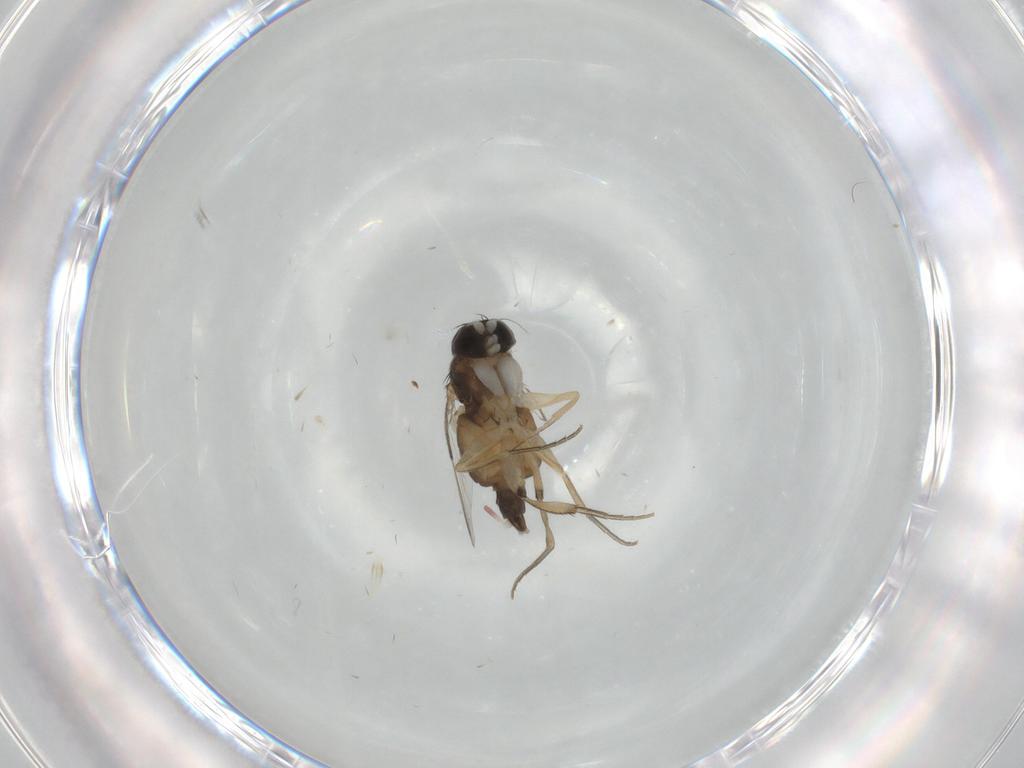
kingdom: Animalia
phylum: Arthropoda
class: Insecta
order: Diptera
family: Phoridae
